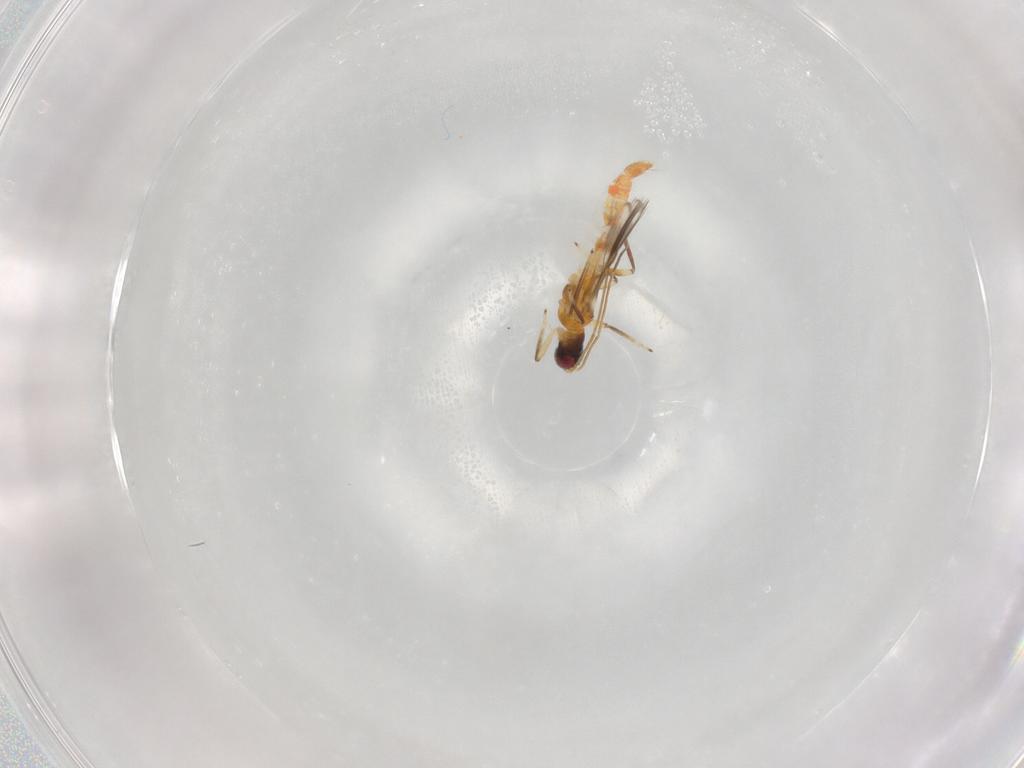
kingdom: Animalia
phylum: Arthropoda
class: Insecta
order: Thysanoptera
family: Aeolothripidae
